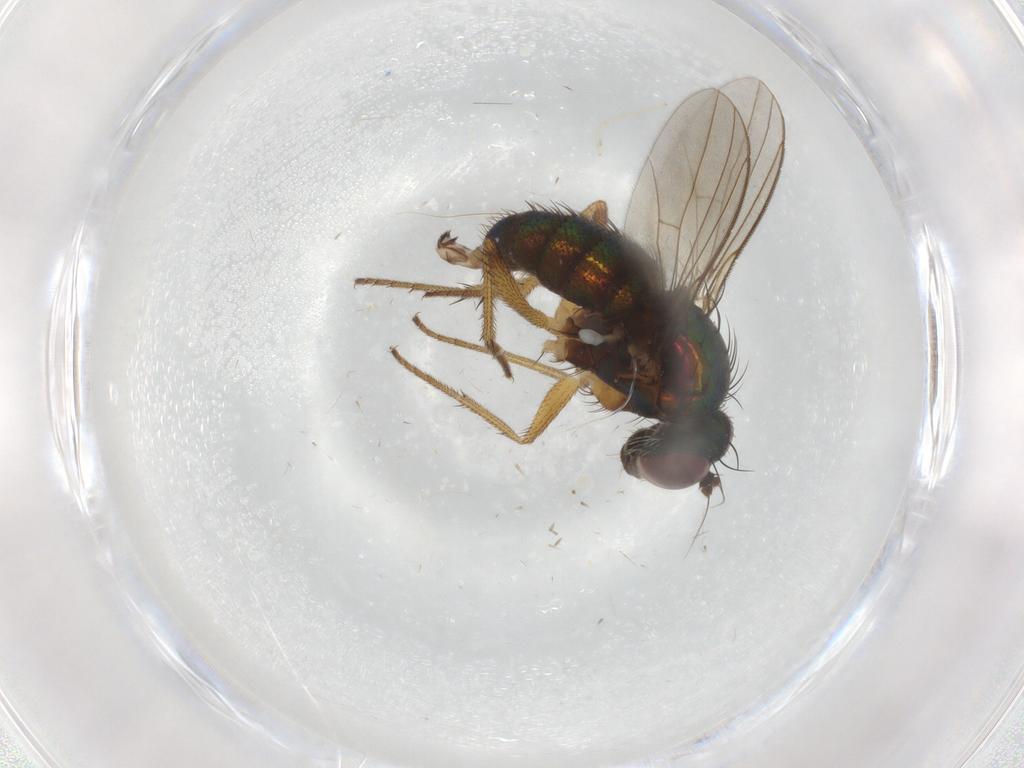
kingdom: Animalia
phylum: Arthropoda
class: Insecta
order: Diptera
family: Dolichopodidae
